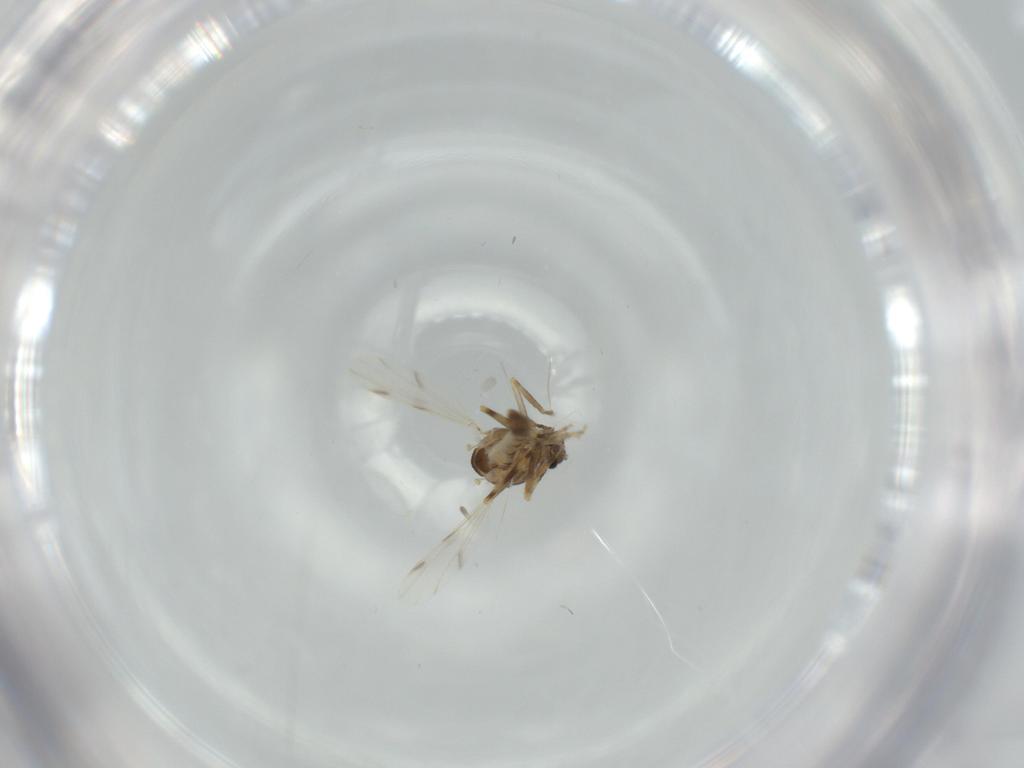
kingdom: Animalia
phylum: Arthropoda
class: Insecta
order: Diptera
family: Ceratopogonidae
